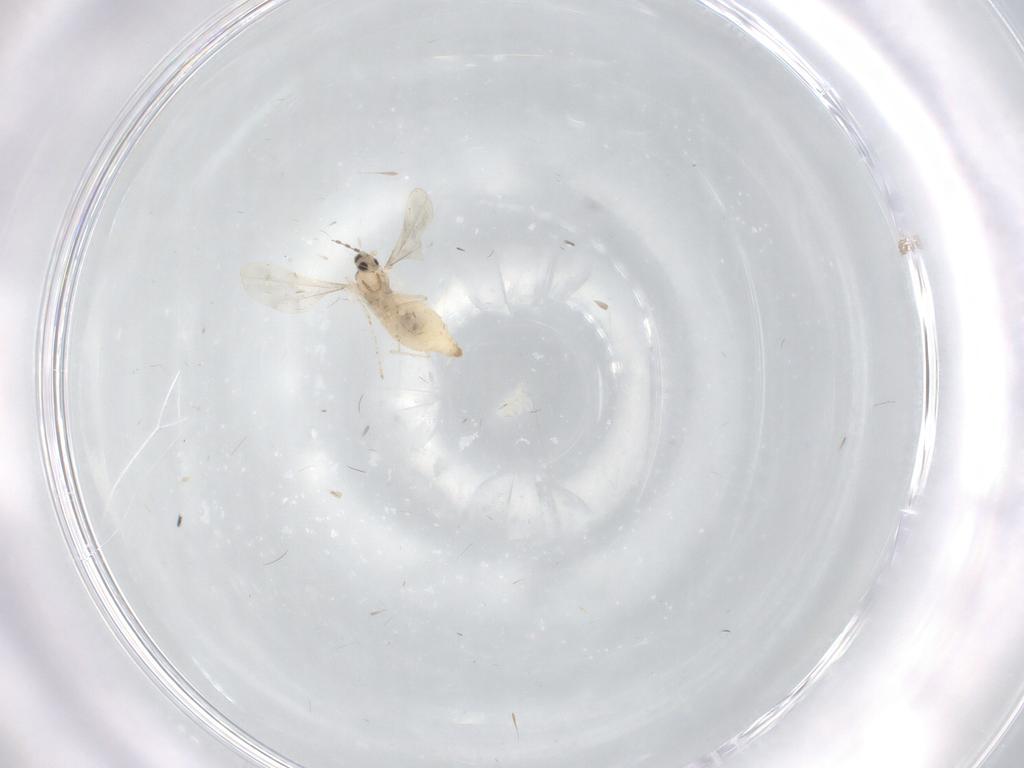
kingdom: Animalia
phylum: Arthropoda
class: Insecta
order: Diptera
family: Cecidomyiidae
